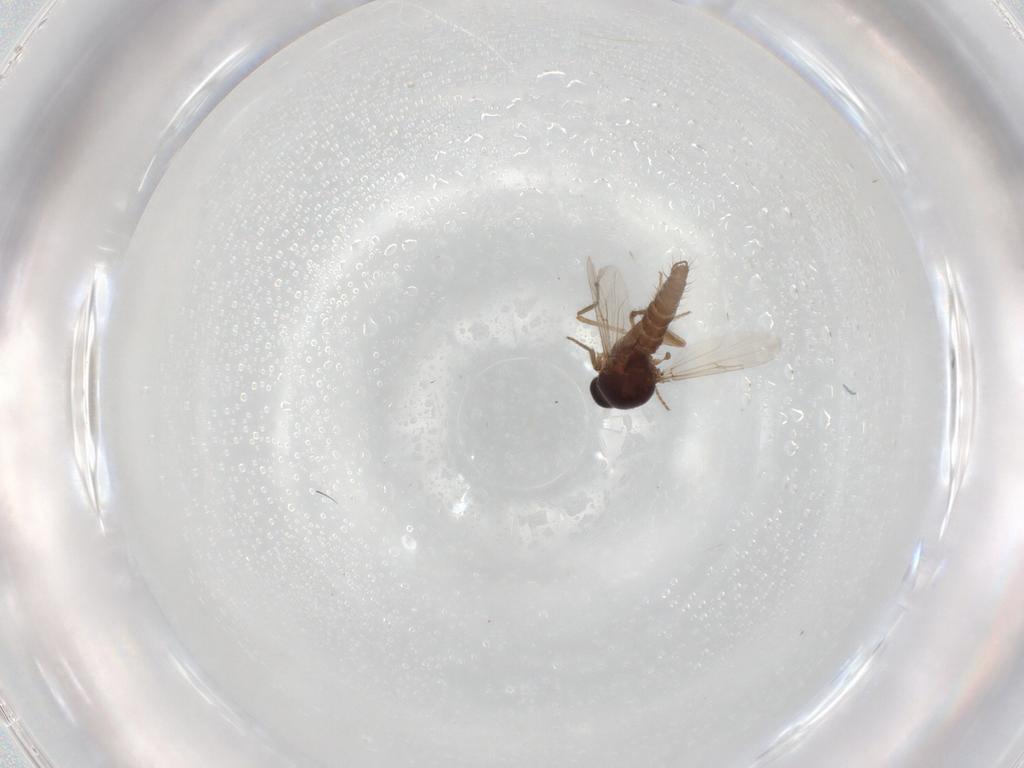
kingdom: Animalia
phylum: Arthropoda
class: Insecta
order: Diptera
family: Ceratopogonidae
